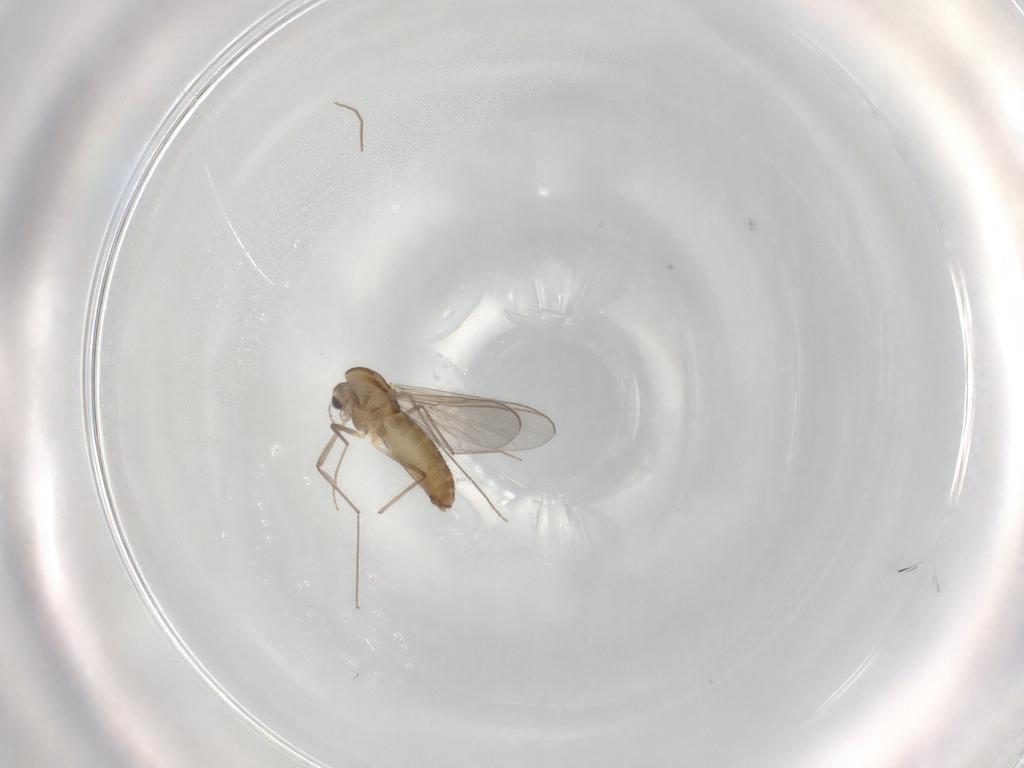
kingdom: Animalia
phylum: Arthropoda
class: Insecta
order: Diptera
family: Chironomidae
